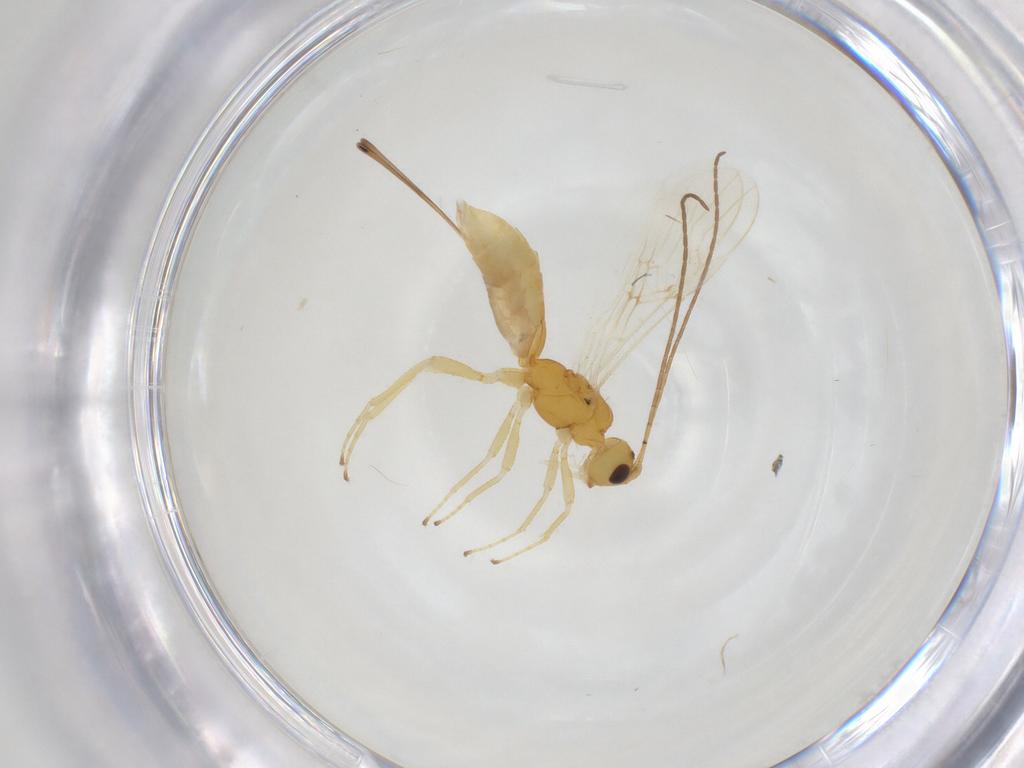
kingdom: Animalia
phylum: Arthropoda
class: Insecta
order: Hymenoptera
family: Braconidae
